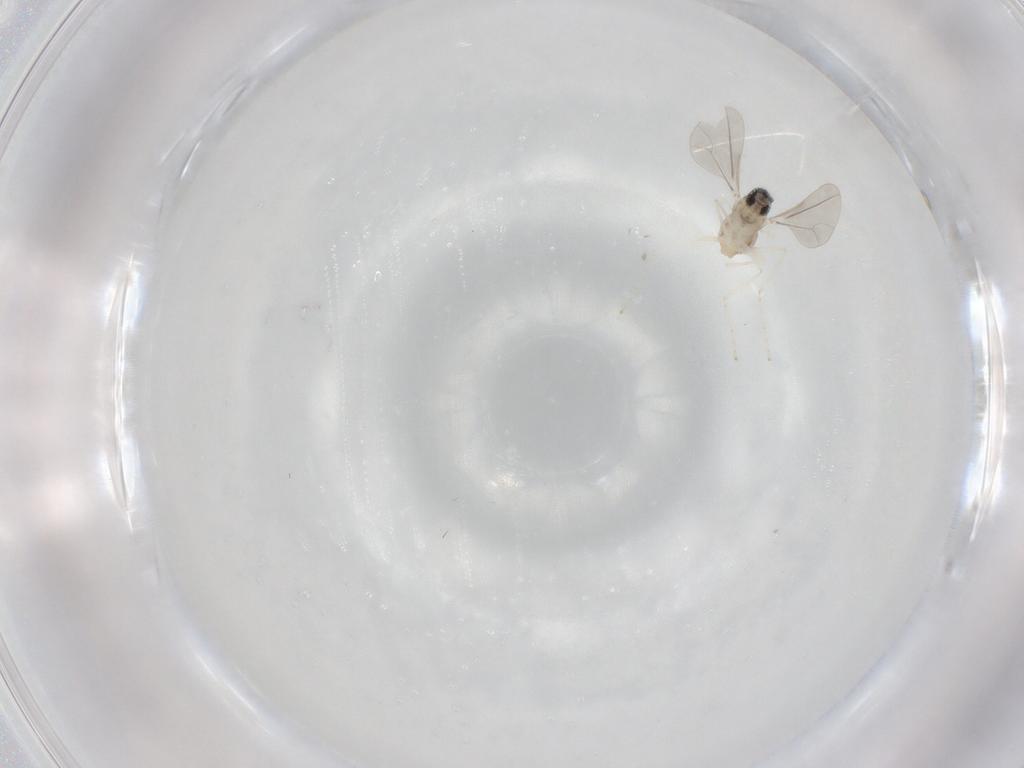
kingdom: Animalia
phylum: Arthropoda
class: Insecta
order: Diptera
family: Cecidomyiidae
